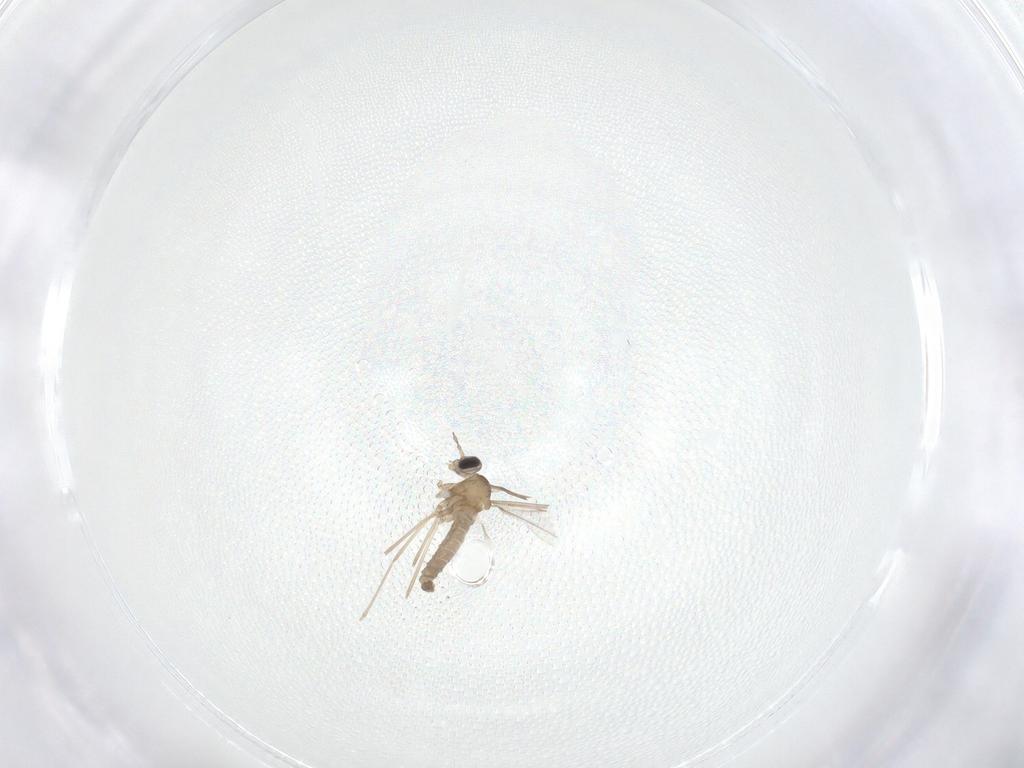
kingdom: Animalia
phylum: Arthropoda
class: Insecta
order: Diptera
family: Cecidomyiidae
